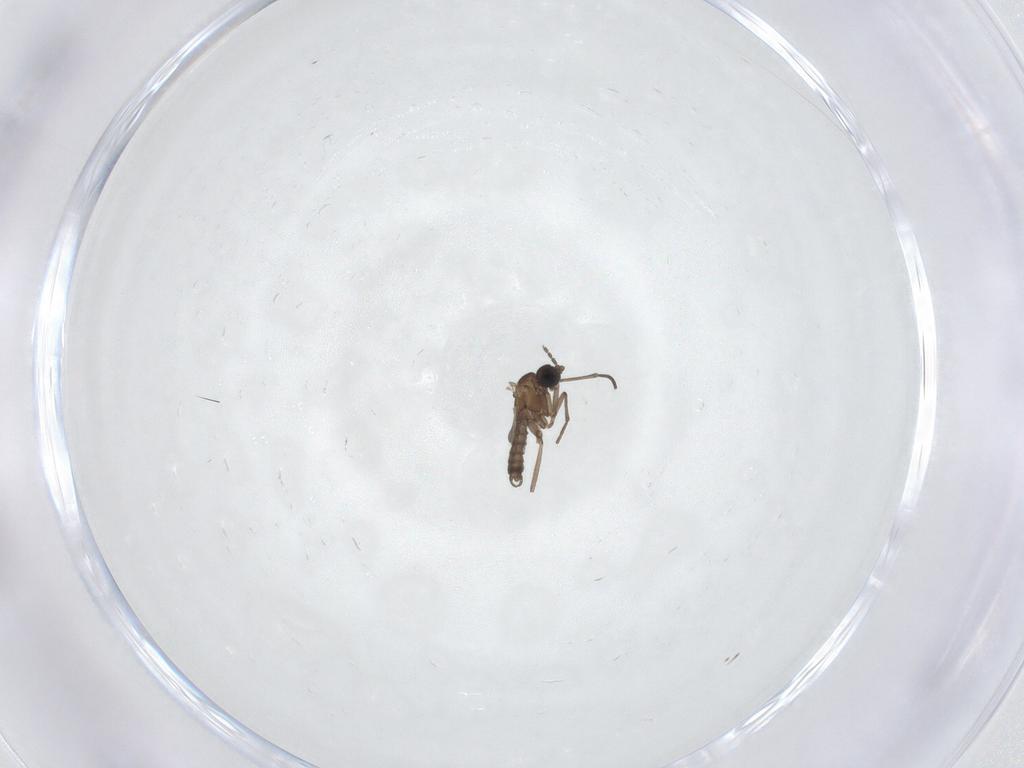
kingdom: Animalia
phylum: Arthropoda
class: Insecta
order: Diptera
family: Sciaridae
